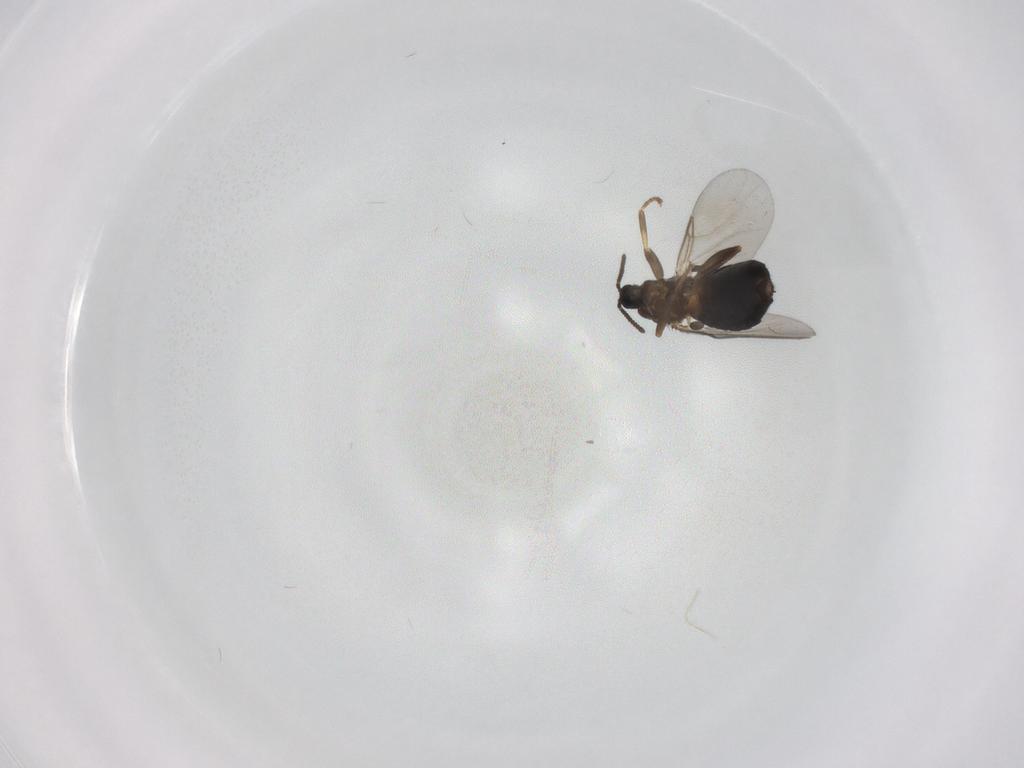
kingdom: Animalia
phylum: Arthropoda
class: Insecta
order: Diptera
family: Scatopsidae
